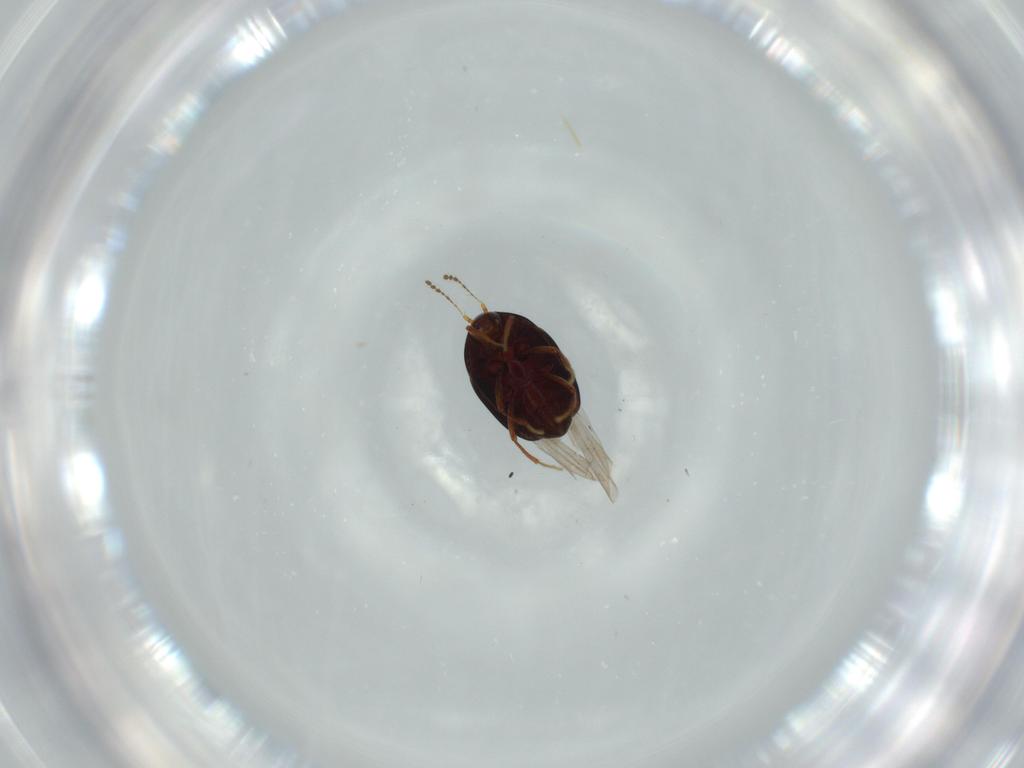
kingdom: Animalia
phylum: Arthropoda
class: Insecta
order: Coleoptera
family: Staphylinidae
